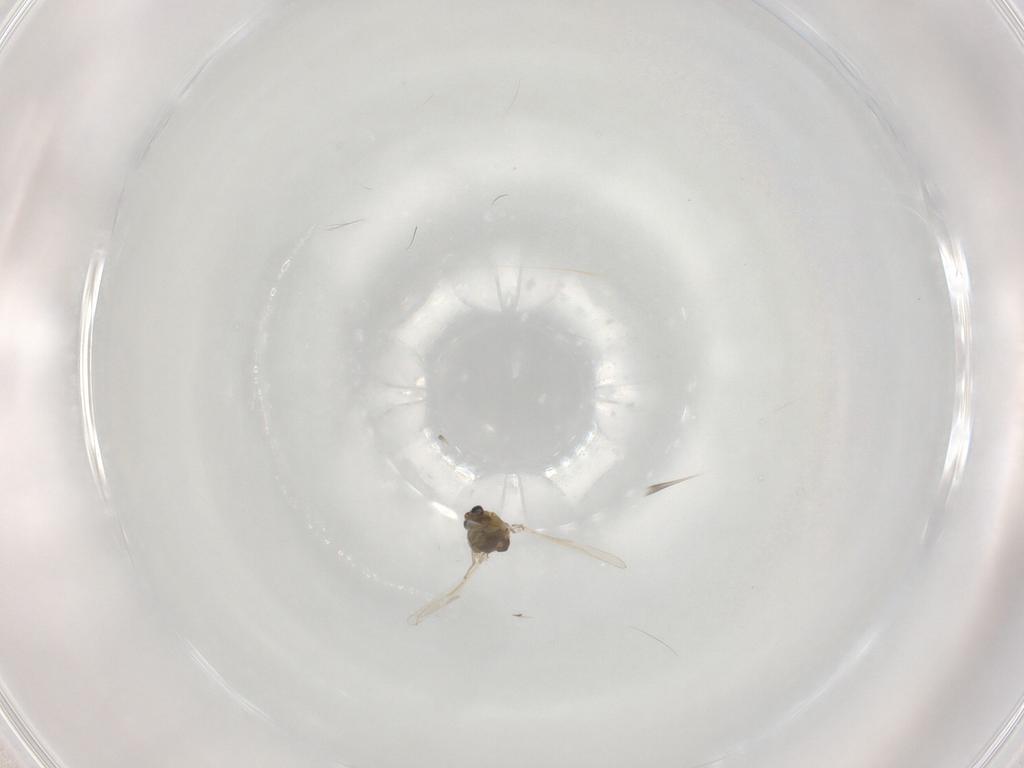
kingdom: Animalia
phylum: Arthropoda
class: Insecta
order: Diptera
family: Chironomidae
